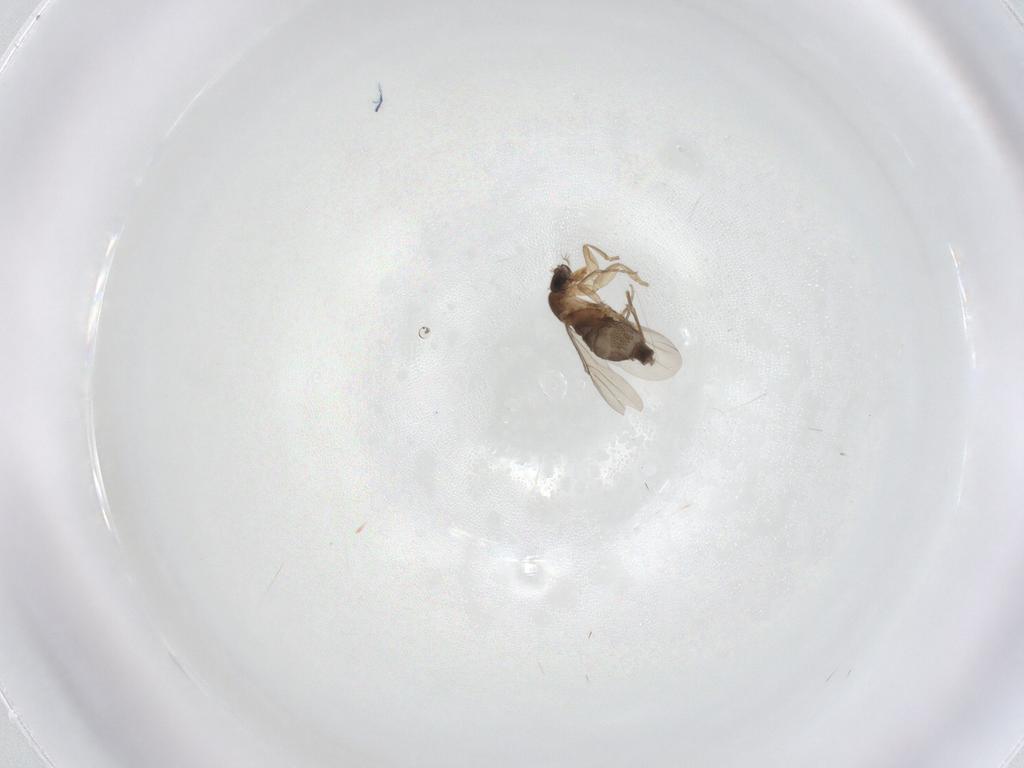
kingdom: Animalia
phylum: Arthropoda
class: Insecta
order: Diptera
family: Phoridae
